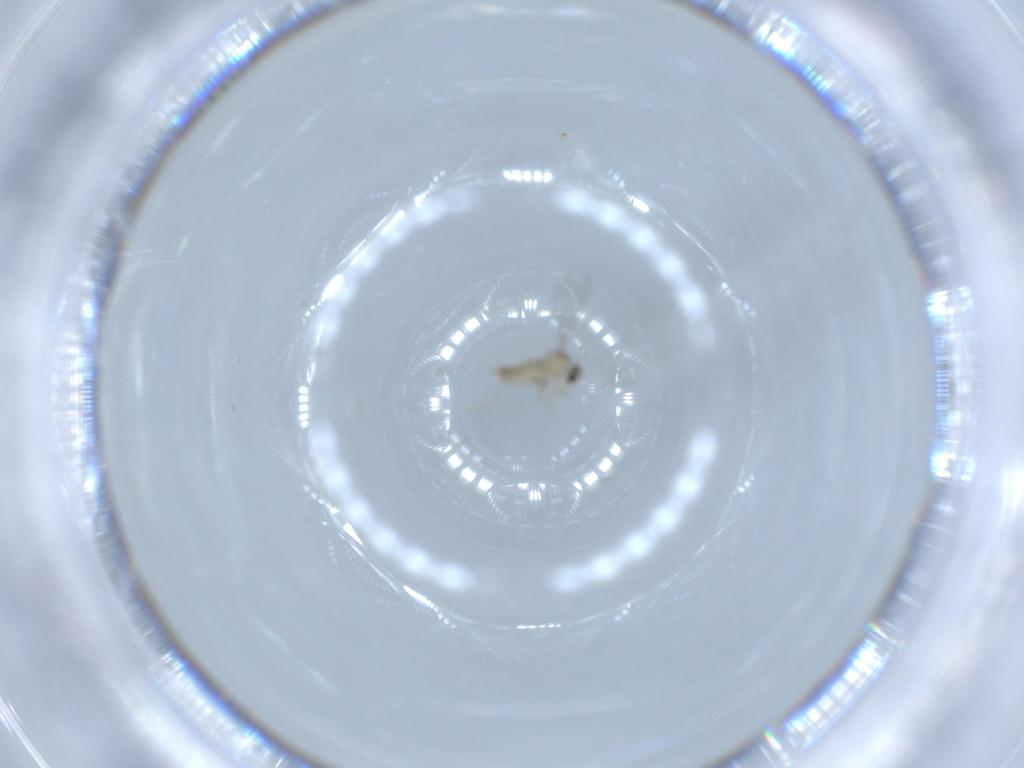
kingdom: Animalia
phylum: Arthropoda
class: Insecta
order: Diptera
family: Cecidomyiidae
